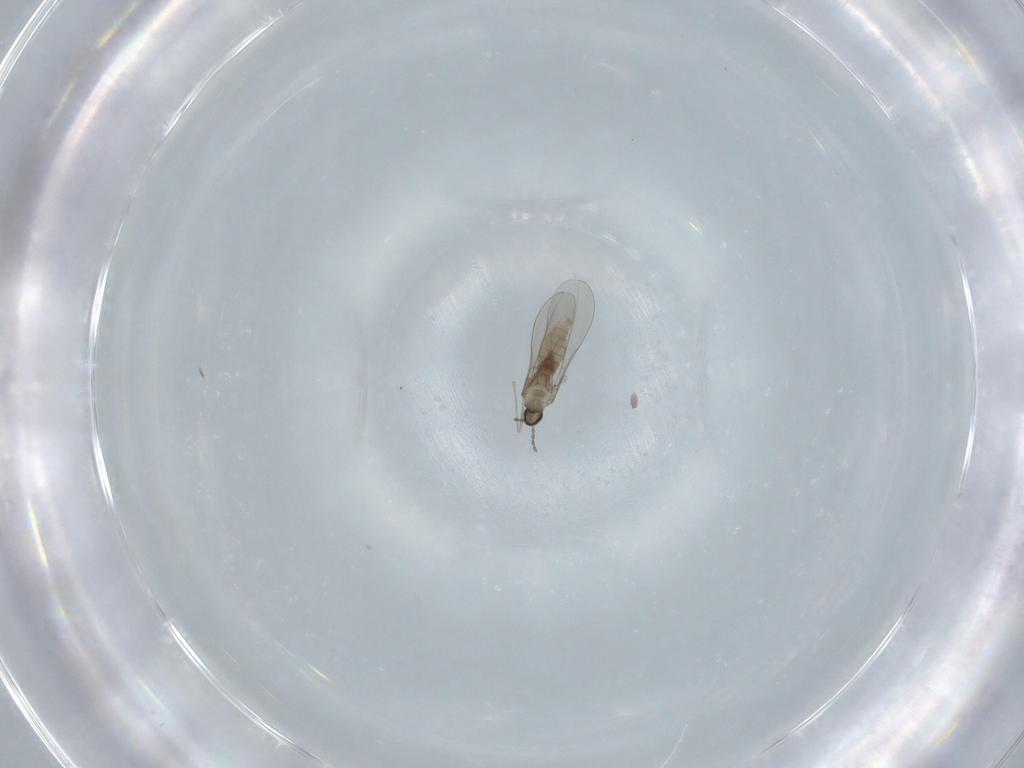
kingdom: Animalia
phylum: Arthropoda
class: Insecta
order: Diptera
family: Cecidomyiidae
